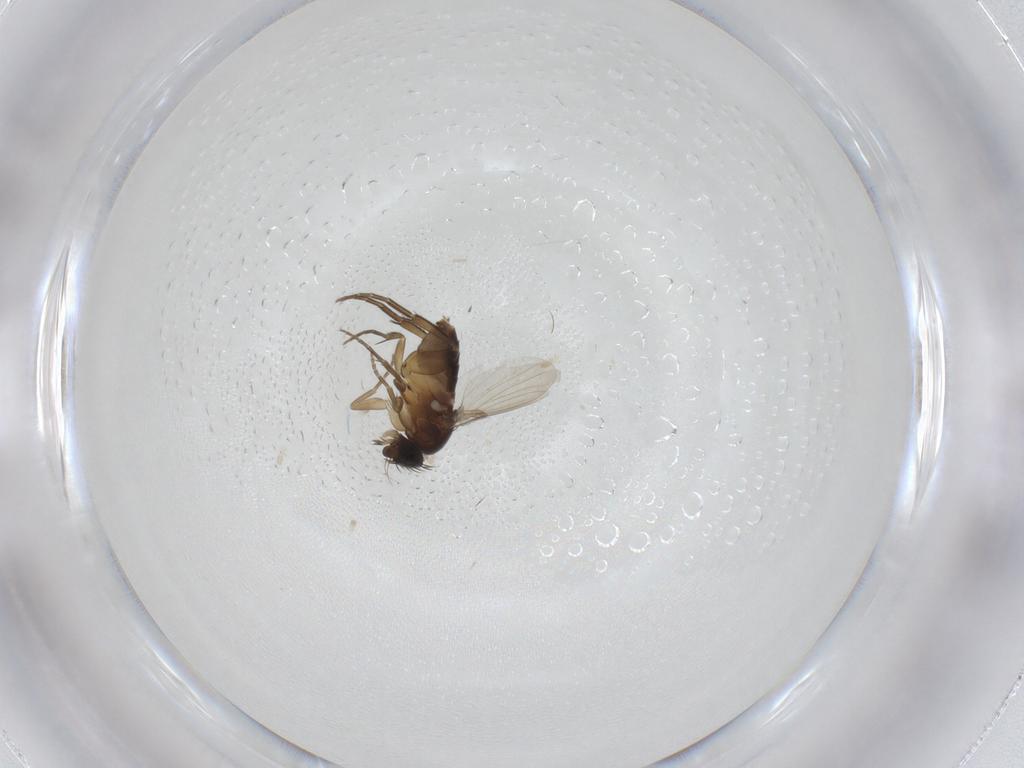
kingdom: Animalia
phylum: Arthropoda
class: Insecta
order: Diptera
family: Phoridae
